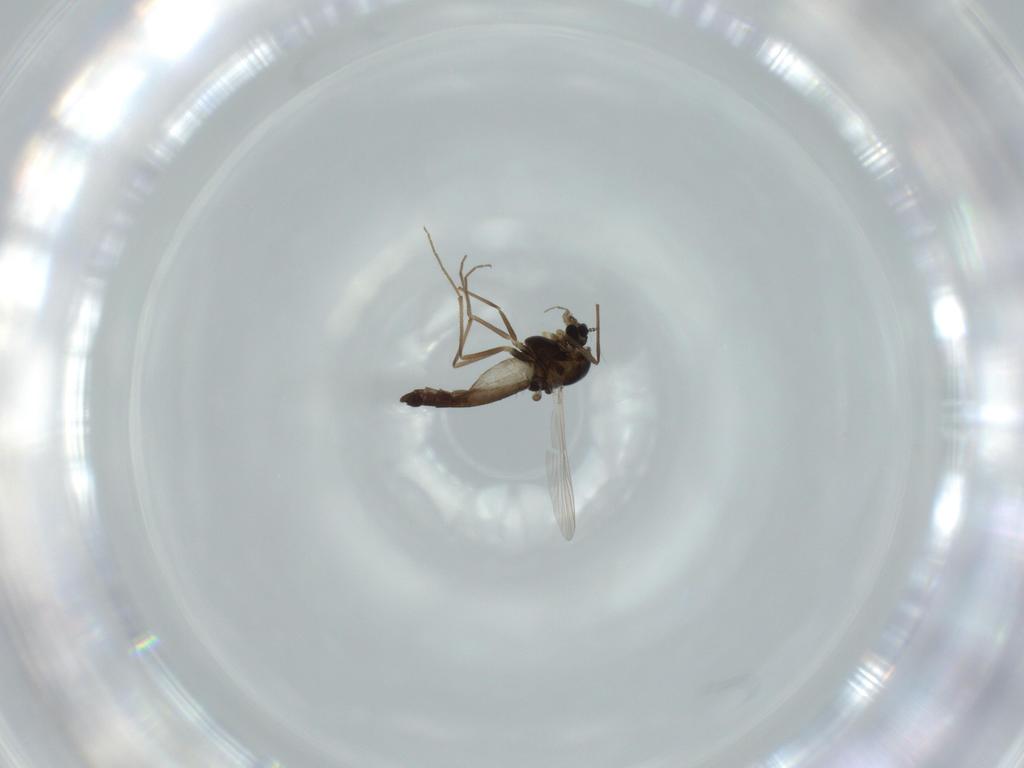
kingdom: Animalia
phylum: Arthropoda
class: Insecta
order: Diptera
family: Chironomidae
